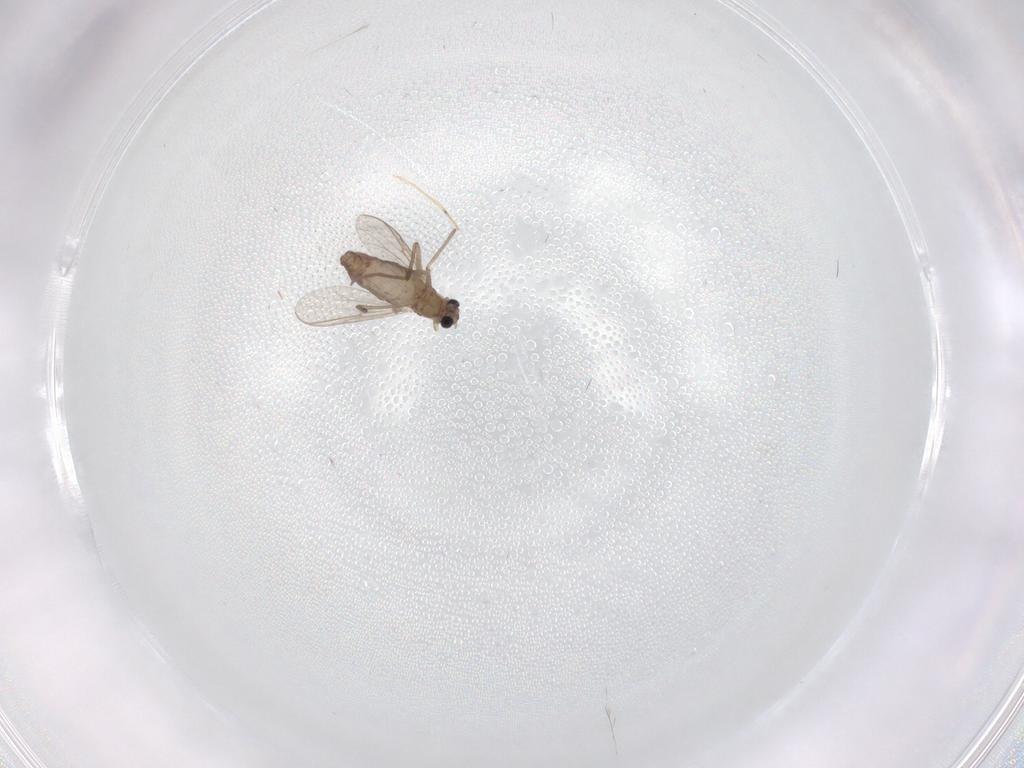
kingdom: Animalia
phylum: Arthropoda
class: Insecta
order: Diptera
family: Chironomidae
